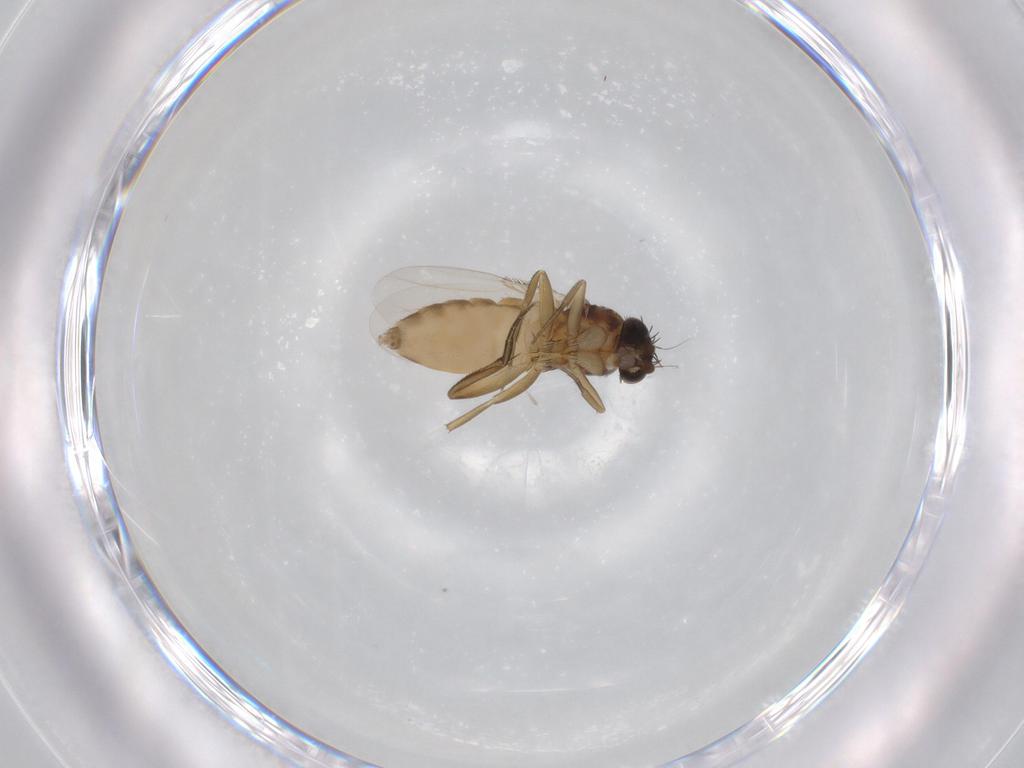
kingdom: Animalia
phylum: Arthropoda
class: Insecta
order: Diptera
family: Phoridae
